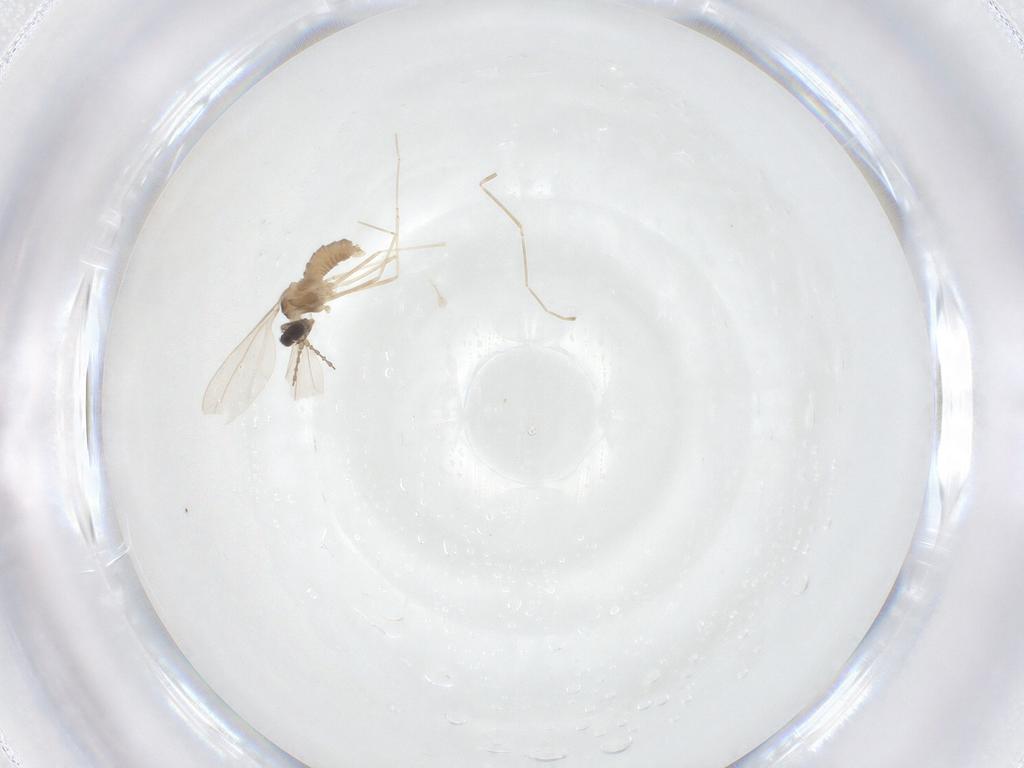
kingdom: Animalia
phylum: Arthropoda
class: Insecta
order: Diptera
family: Cecidomyiidae
